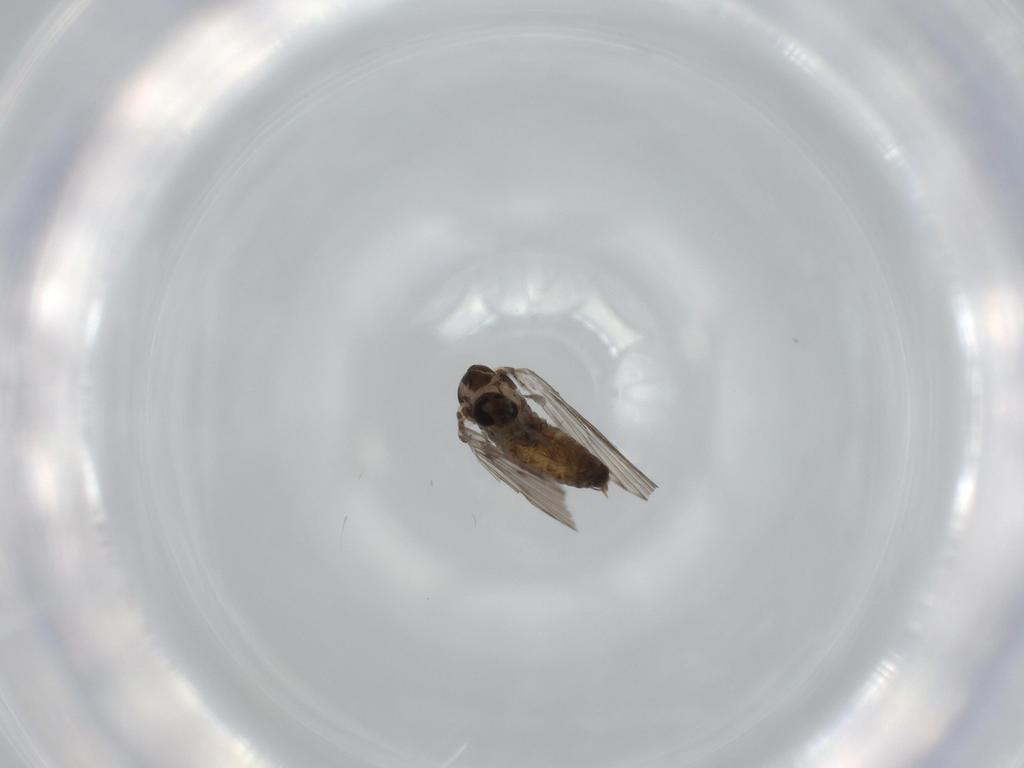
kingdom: Animalia
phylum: Arthropoda
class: Insecta
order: Diptera
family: Psychodidae
